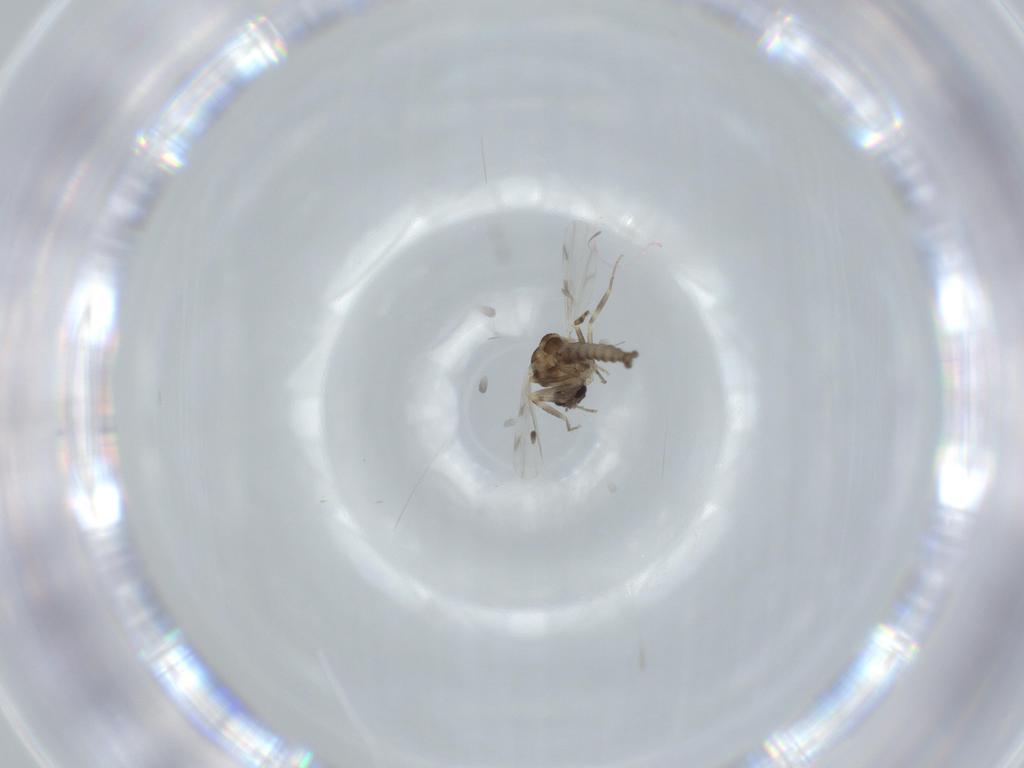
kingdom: Animalia
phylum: Arthropoda
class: Insecta
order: Diptera
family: Ceratopogonidae
